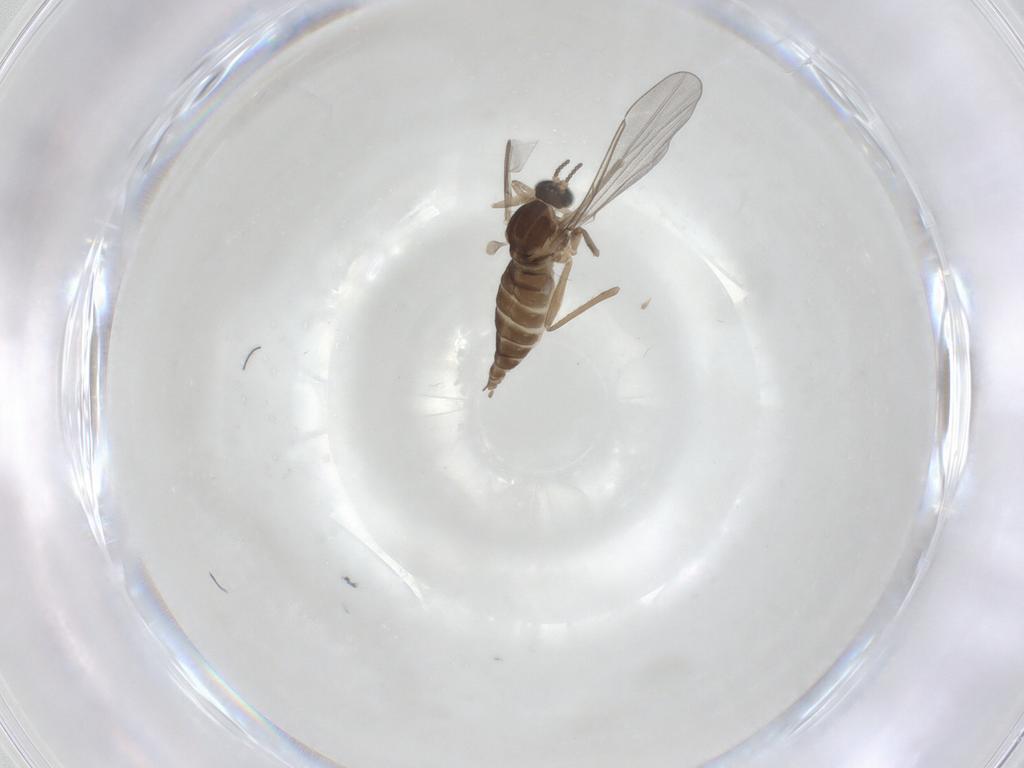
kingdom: Animalia
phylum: Arthropoda
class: Insecta
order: Diptera
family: Cecidomyiidae
